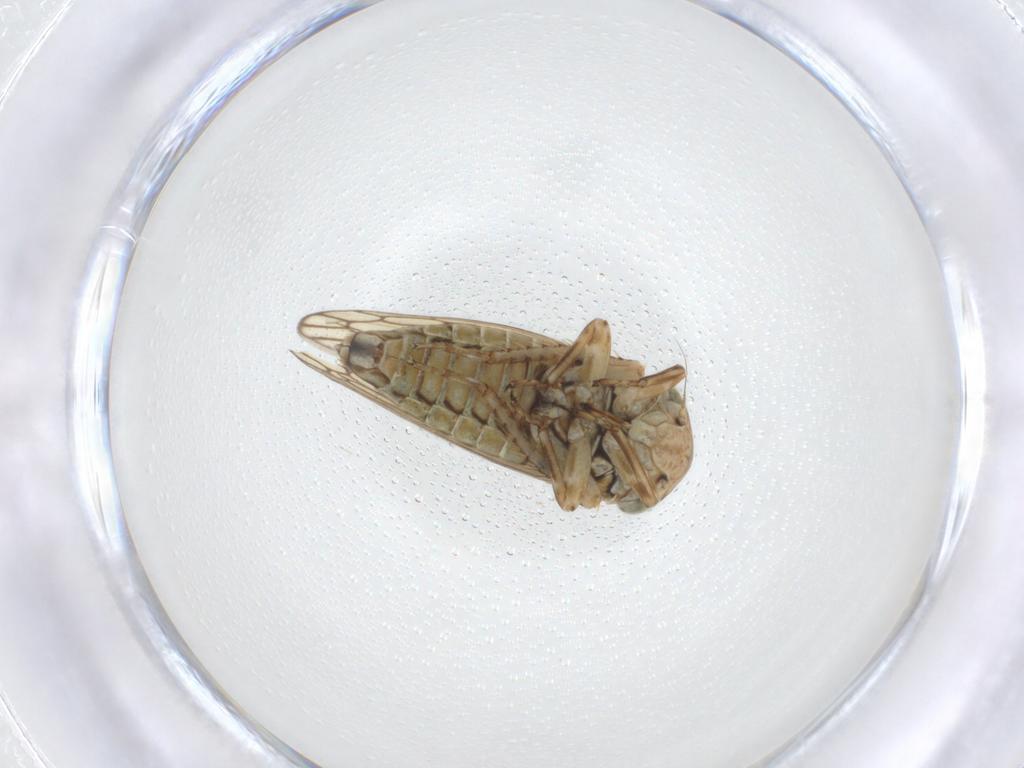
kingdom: Animalia
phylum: Arthropoda
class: Insecta
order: Hemiptera
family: Cicadellidae
